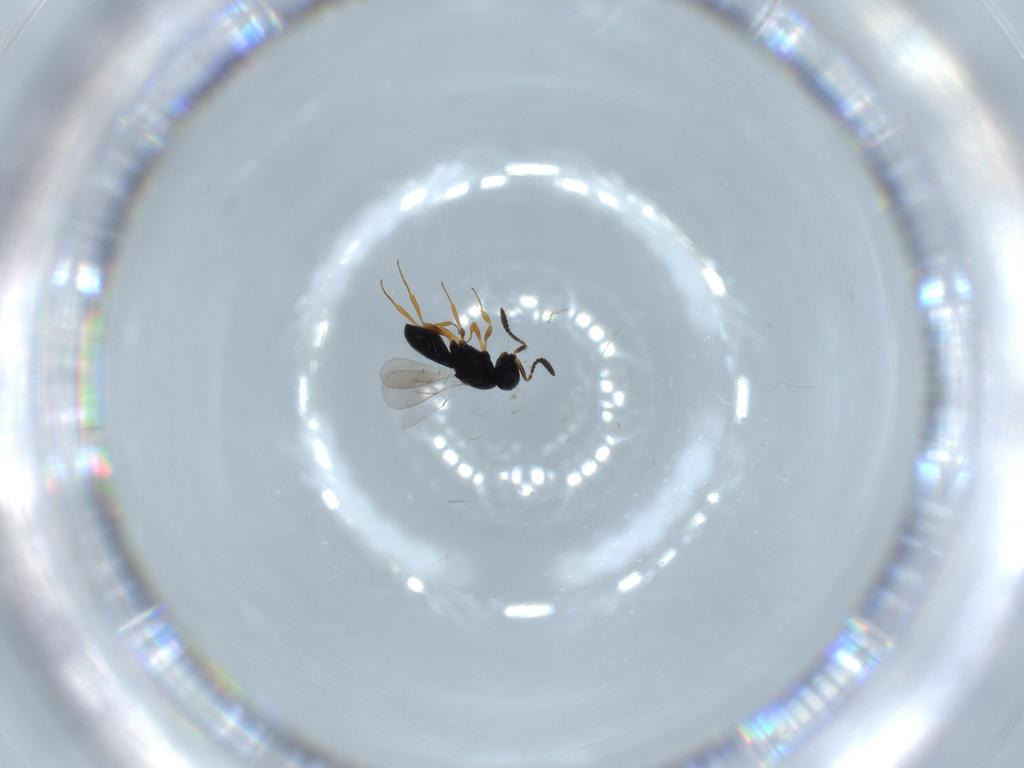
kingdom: Animalia
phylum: Arthropoda
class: Insecta
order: Hymenoptera
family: Scelionidae
